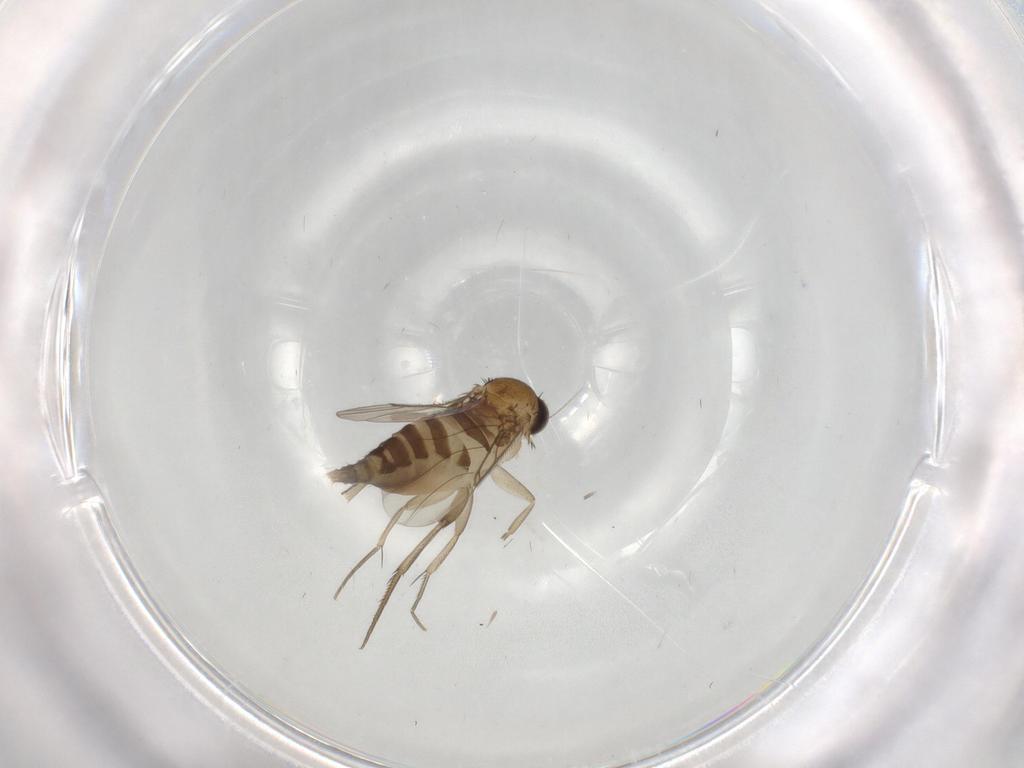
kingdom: Animalia
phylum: Arthropoda
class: Insecta
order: Diptera
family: Phoridae
